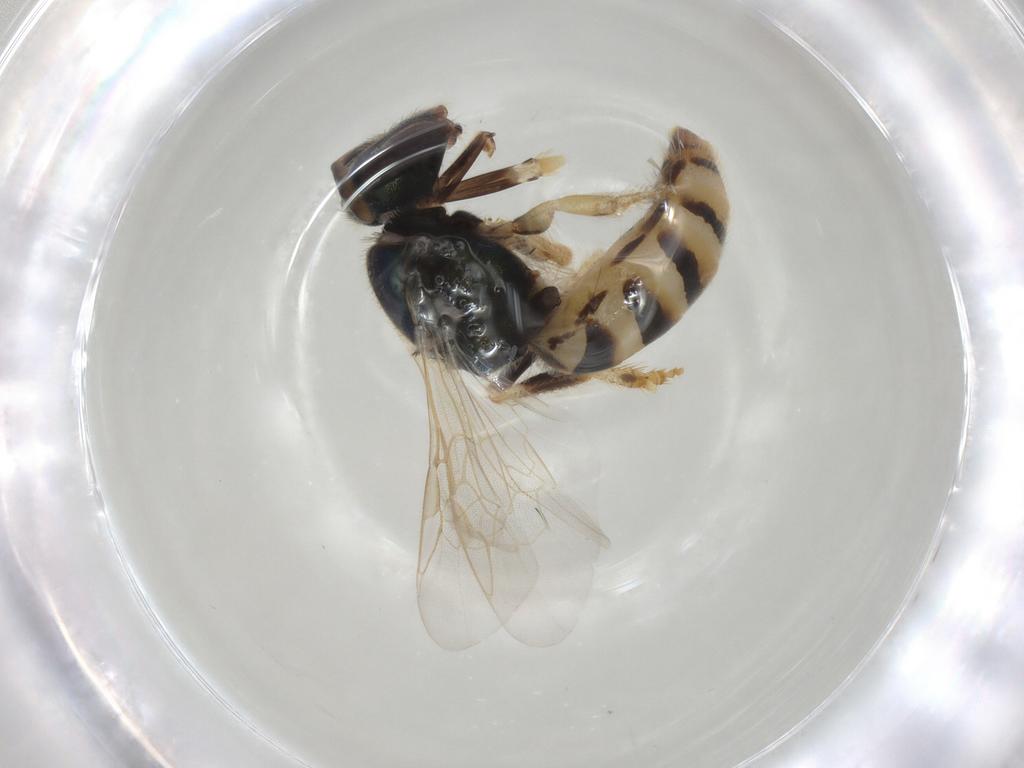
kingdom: Animalia
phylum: Arthropoda
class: Insecta
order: Hymenoptera
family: Halictidae
